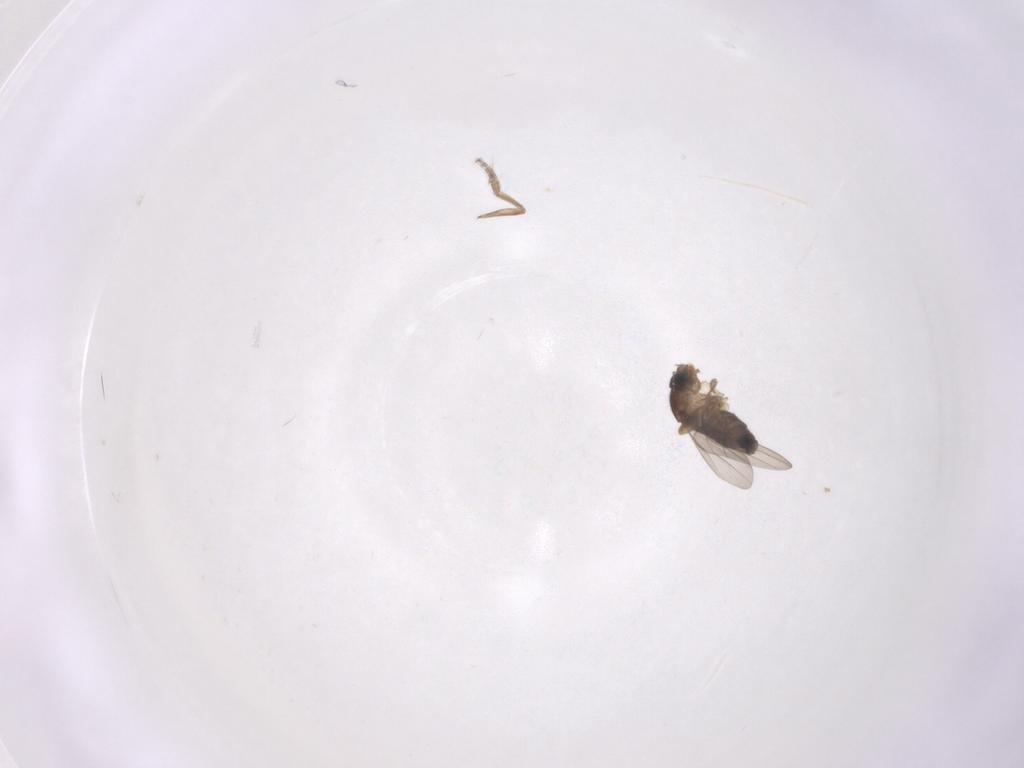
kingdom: Animalia
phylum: Arthropoda
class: Insecta
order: Diptera
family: Phoridae
